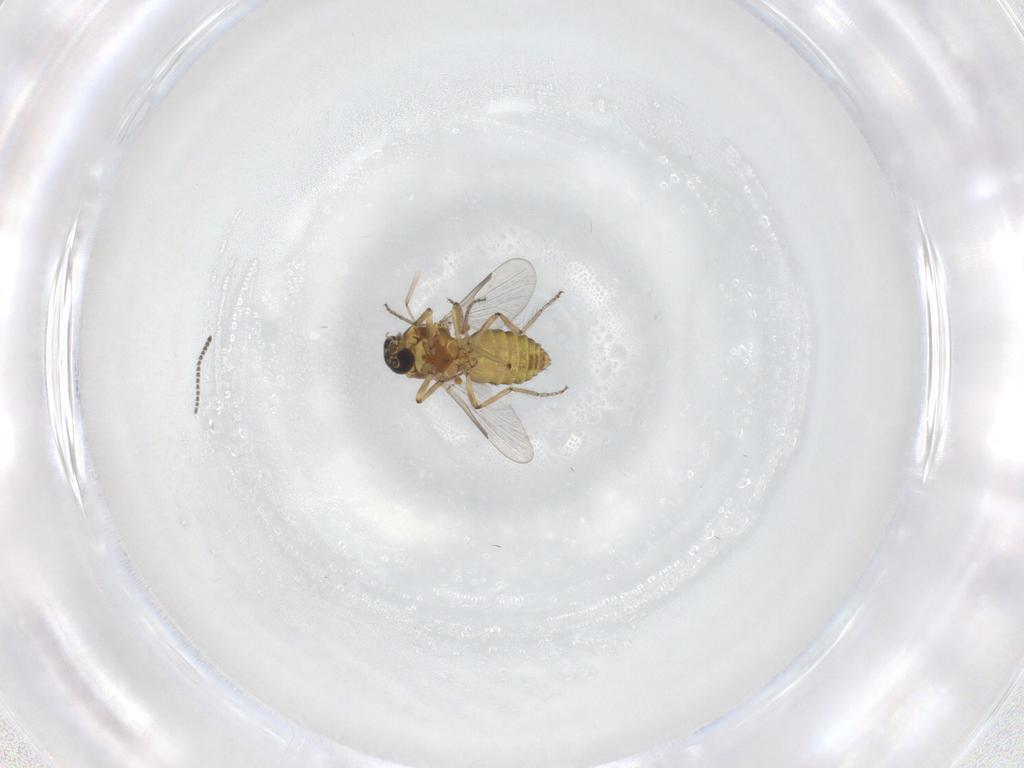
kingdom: Animalia
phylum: Arthropoda
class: Insecta
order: Diptera
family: Ceratopogonidae
